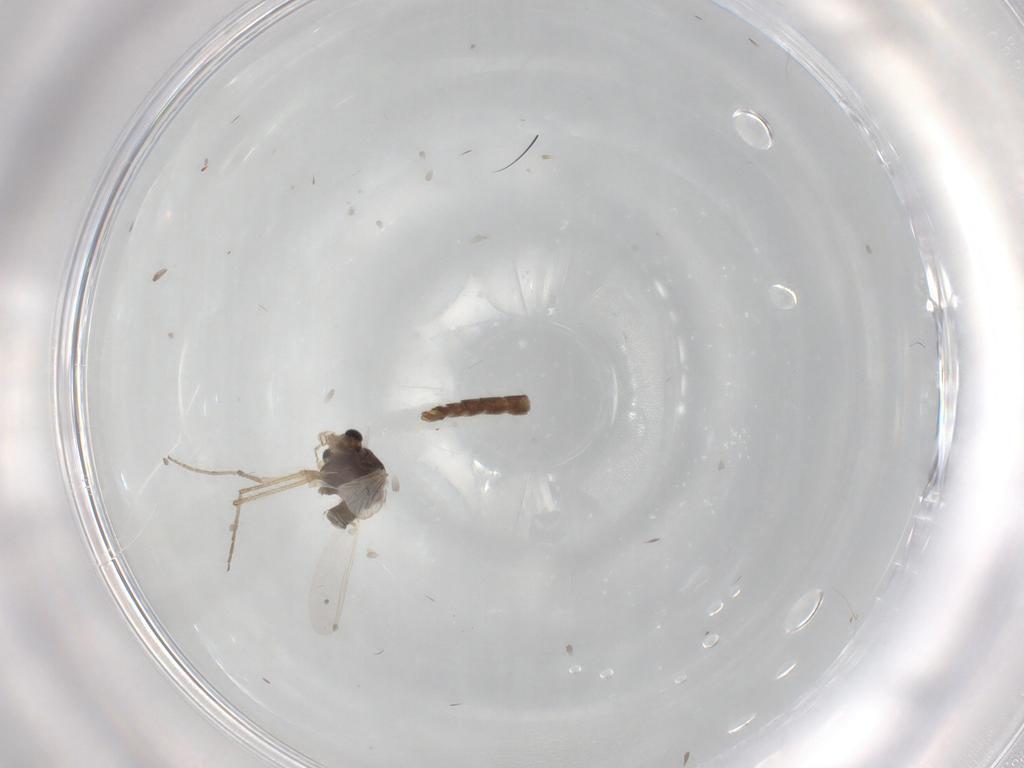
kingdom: Animalia
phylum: Arthropoda
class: Insecta
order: Diptera
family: Chironomidae
